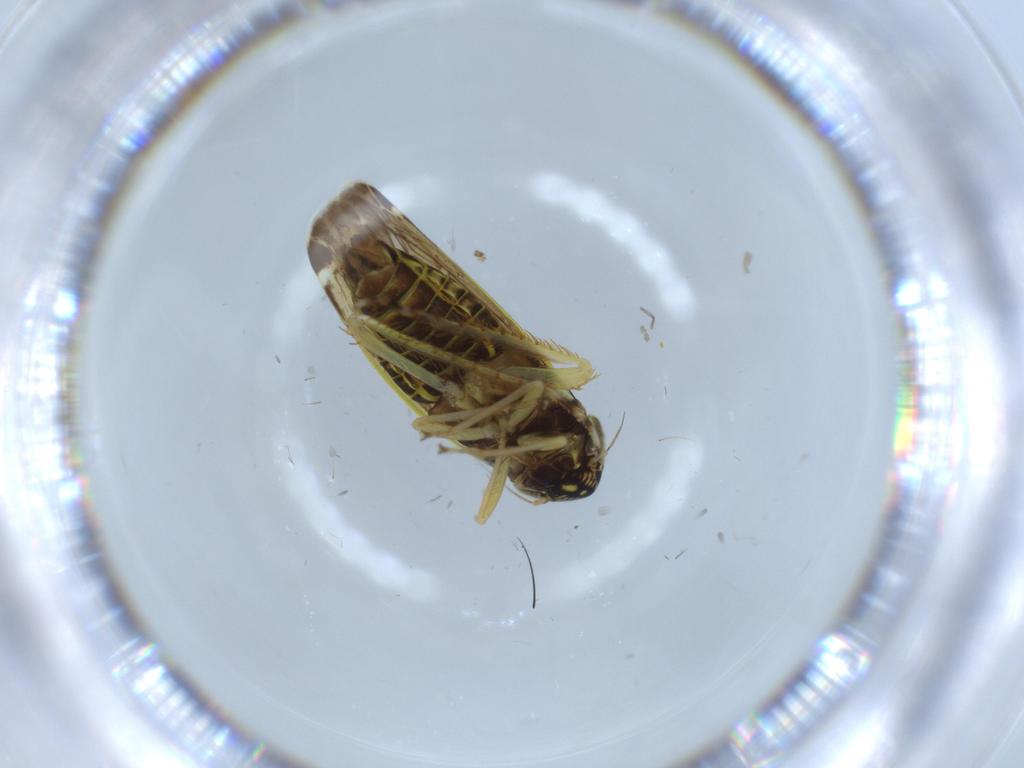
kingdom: Animalia
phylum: Arthropoda
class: Insecta
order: Hemiptera
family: Cicadellidae
